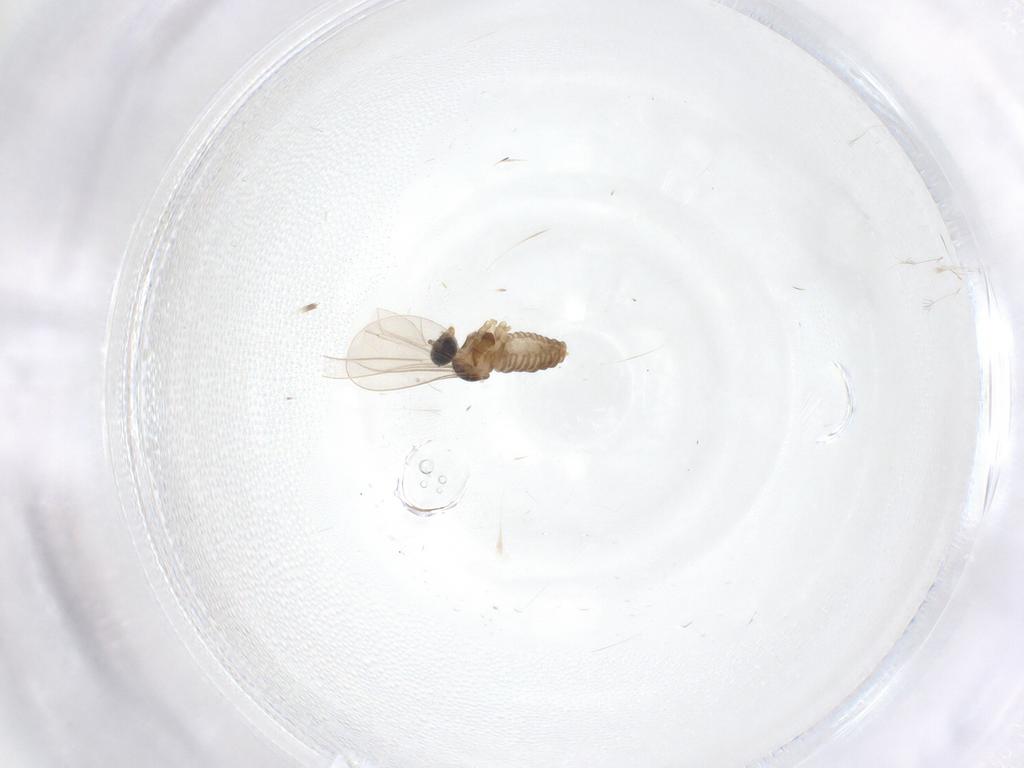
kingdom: Animalia
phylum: Arthropoda
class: Insecta
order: Diptera
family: Cecidomyiidae
